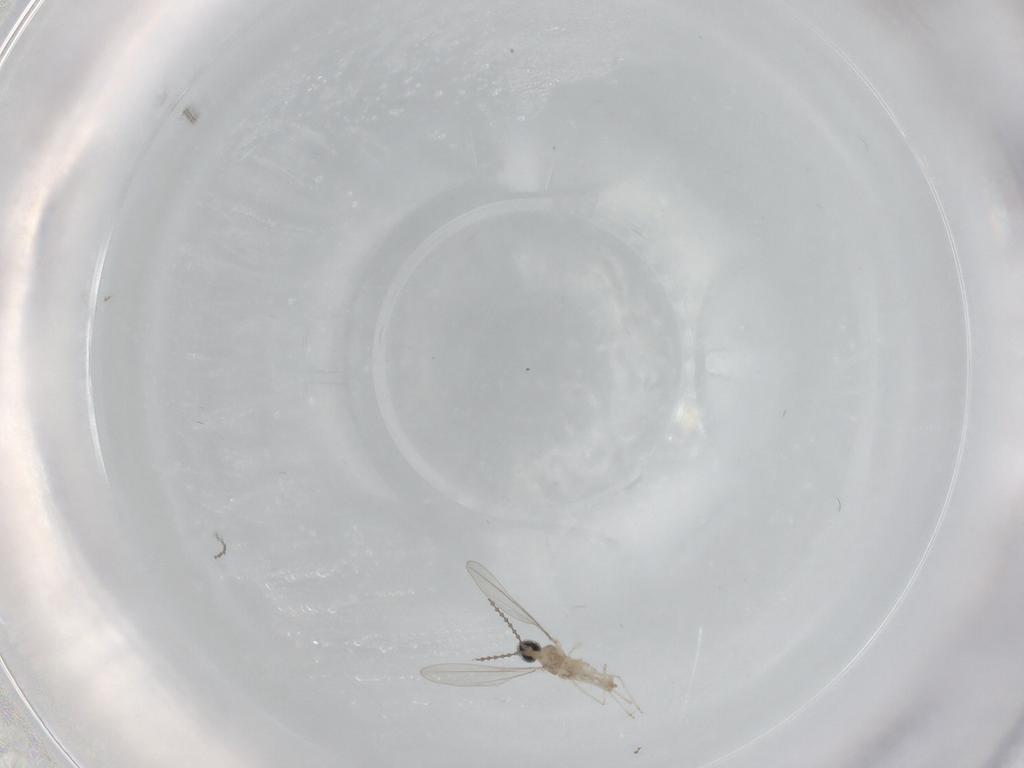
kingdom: Animalia
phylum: Arthropoda
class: Insecta
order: Diptera
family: Cecidomyiidae
